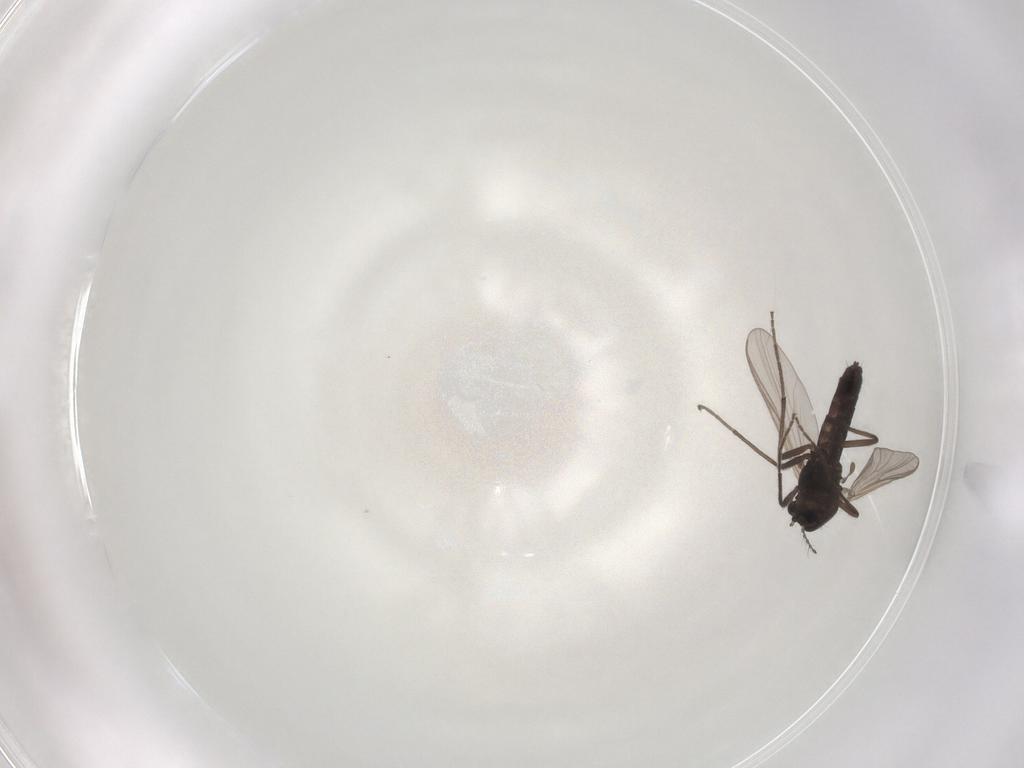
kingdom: Animalia
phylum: Arthropoda
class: Insecta
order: Diptera
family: Chironomidae
